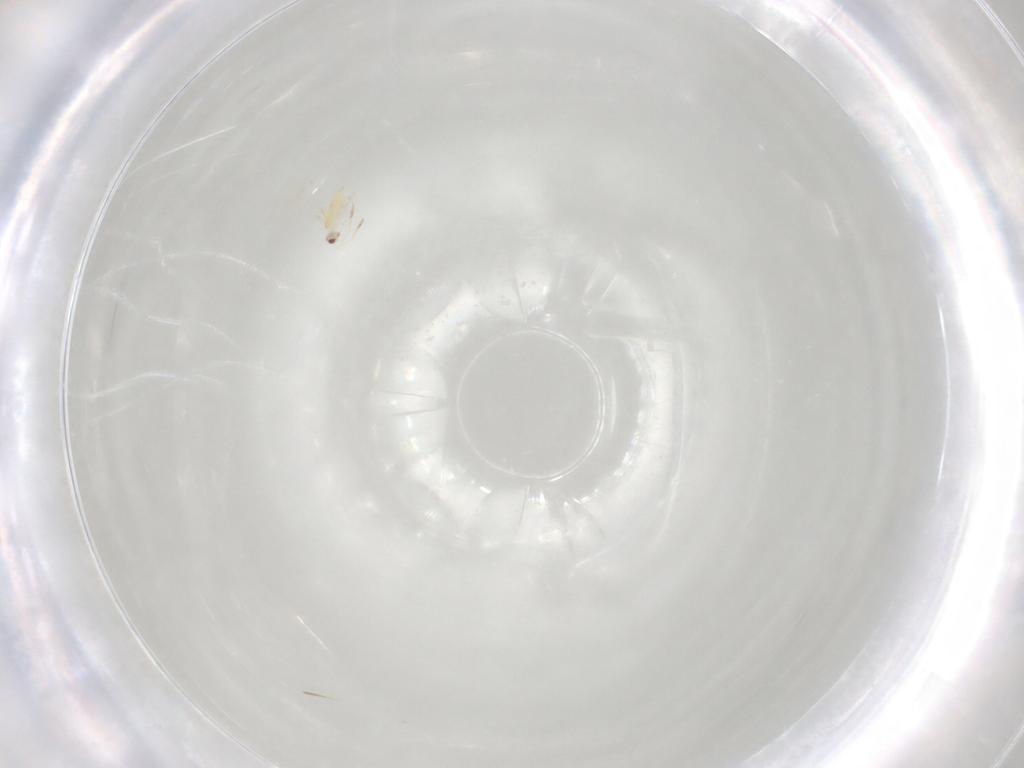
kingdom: Animalia
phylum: Arthropoda
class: Insecta
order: Hymenoptera
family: Mymaridae
